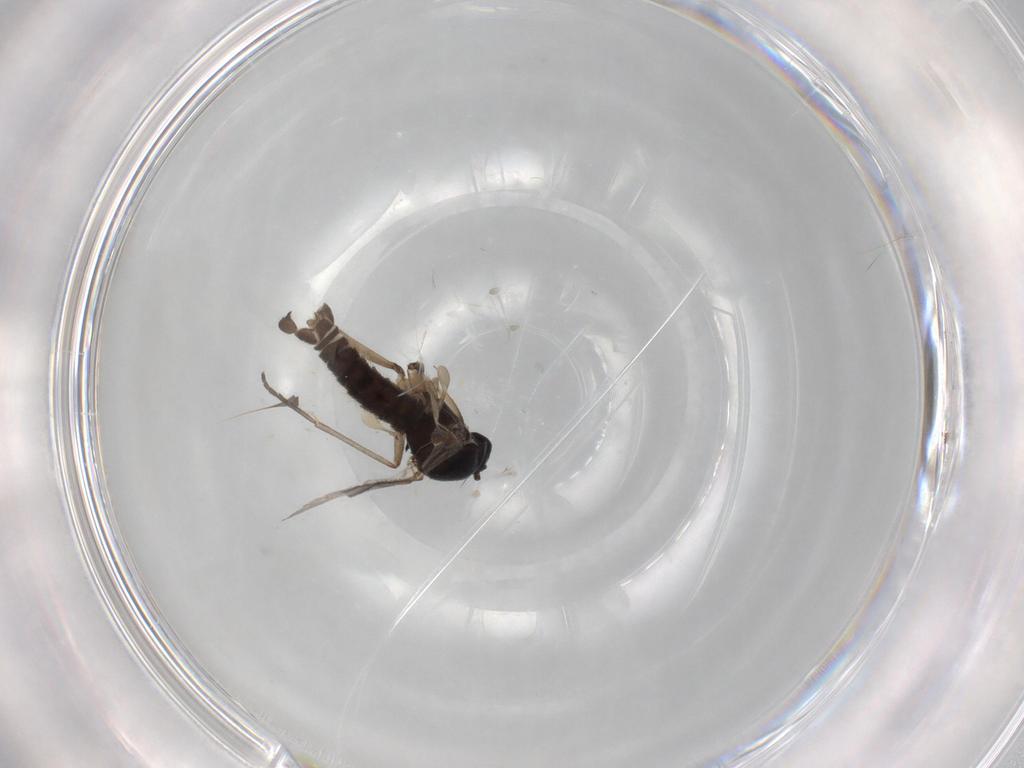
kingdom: Animalia
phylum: Arthropoda
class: Insecta
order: Diptera
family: Sciaridae
